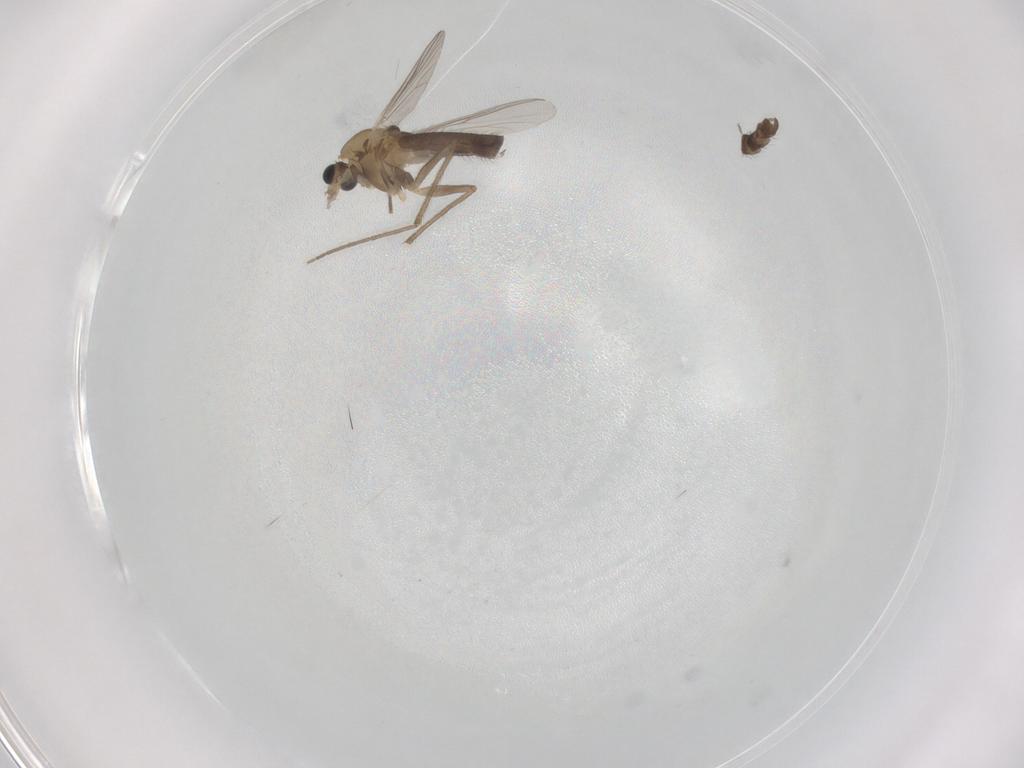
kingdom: Animalia
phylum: Arthropoda
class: Insecta
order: Diptera
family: Chironomidae
